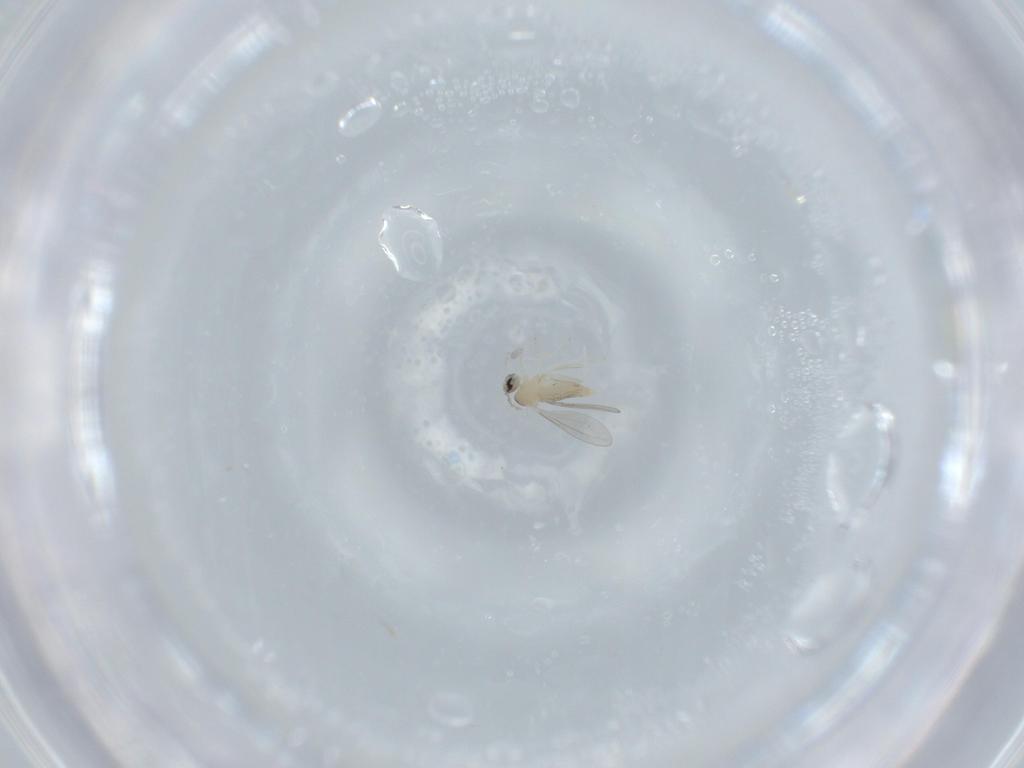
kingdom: Animalia
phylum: Arthropoda
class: Insecta
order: Diptera
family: Cecidomyiidae
